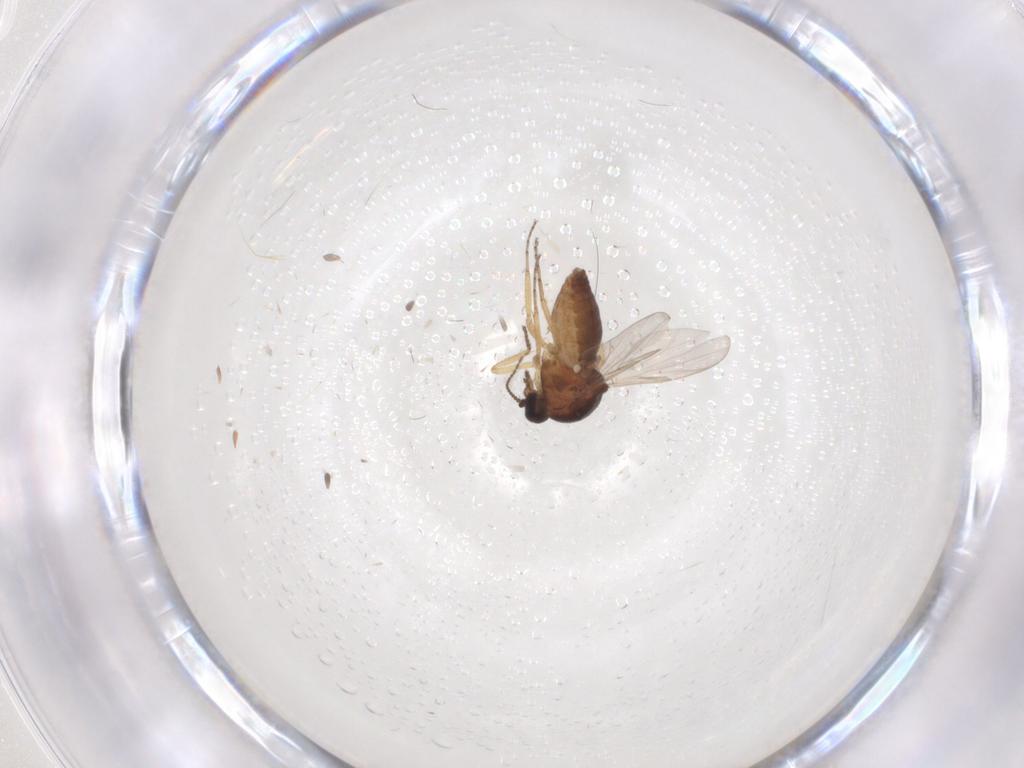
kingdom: Animalia
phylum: Arthropoda
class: Insecta
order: Diptera
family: Ceratopogonidae
